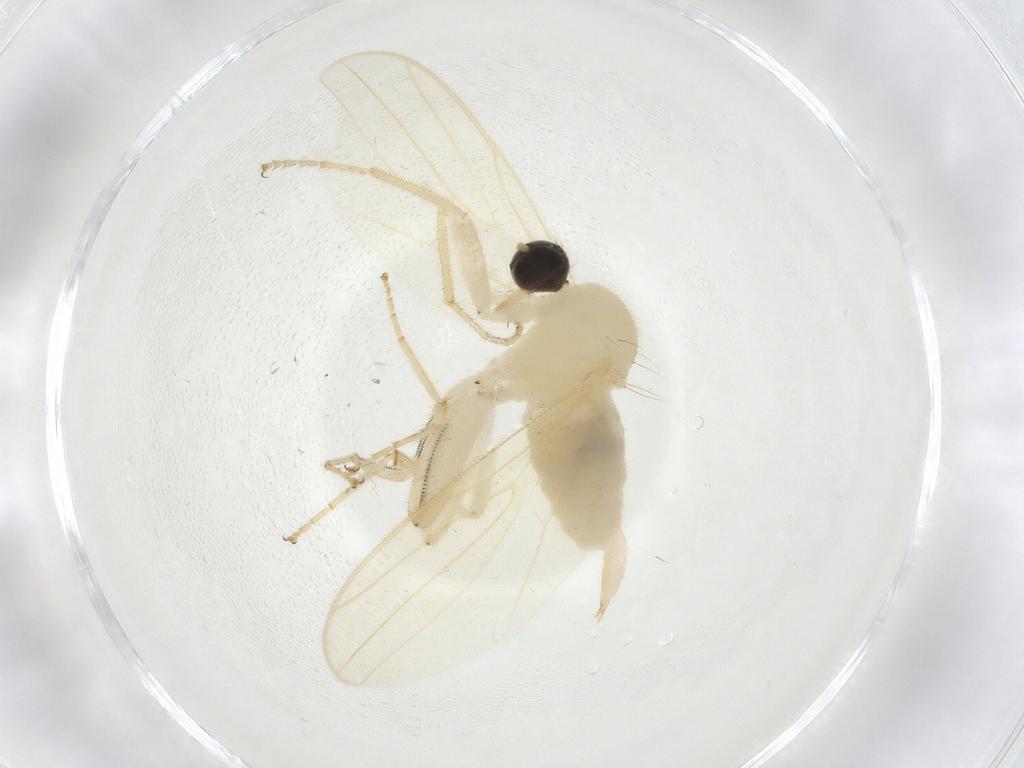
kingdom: Animalia
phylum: Arthropoda
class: Insecta
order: Diptera
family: Hybotidae
